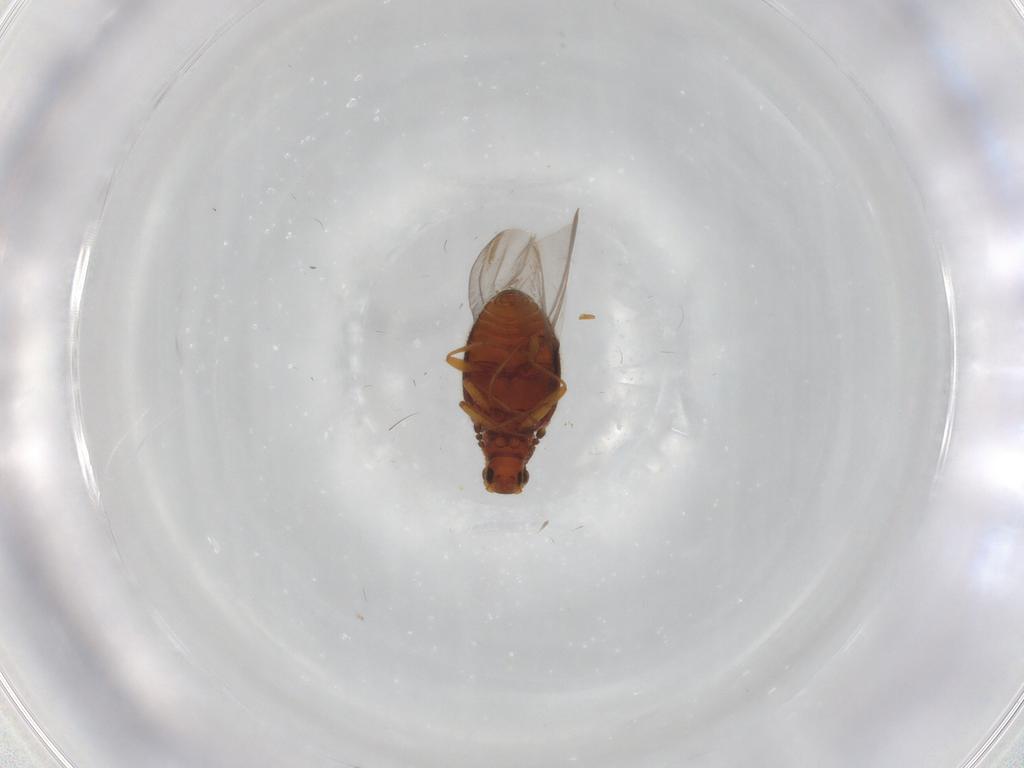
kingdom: Animalia
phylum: Arthropoda
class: Insecta
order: Coleoptera
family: Latridiidae
